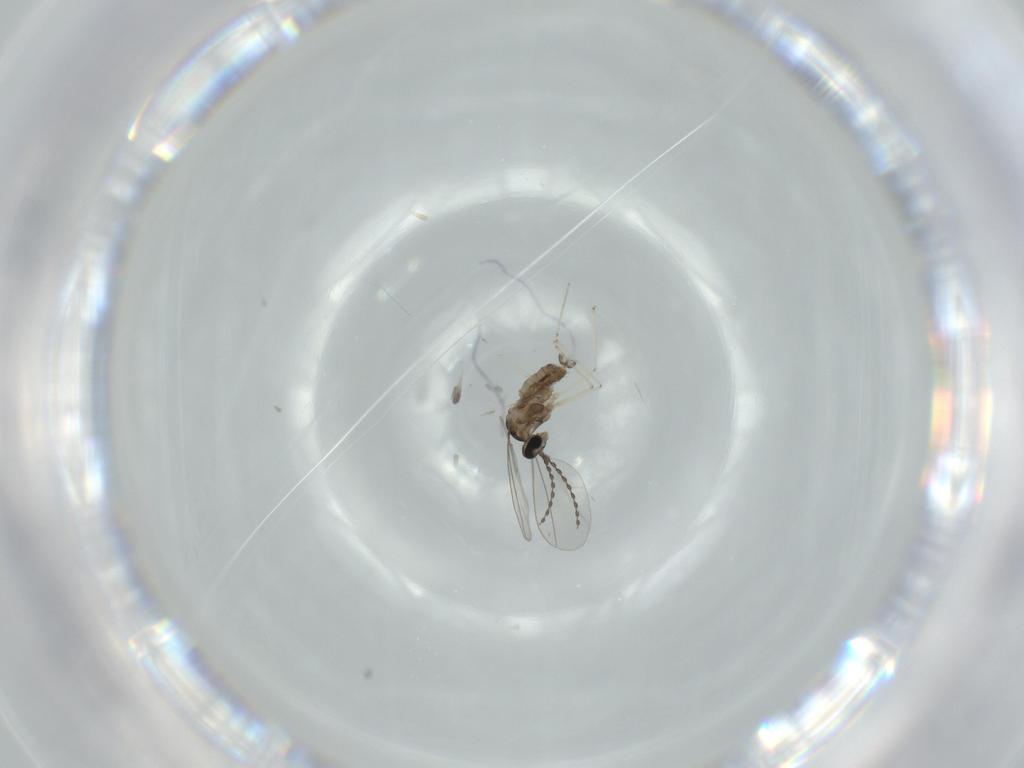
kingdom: Animalia
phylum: Arthropoda
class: Insecta
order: Diptera
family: Cecidomyiidae
